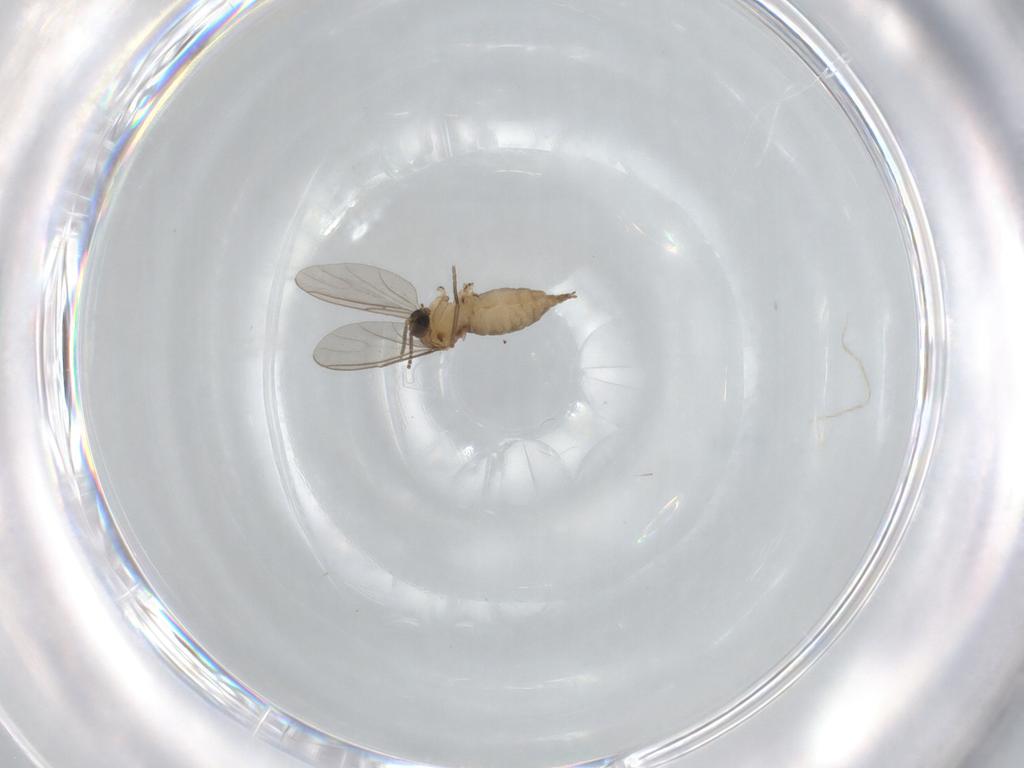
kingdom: Animalia
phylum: Arthropoda
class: Insecta
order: Diptera
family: Sciaridae
